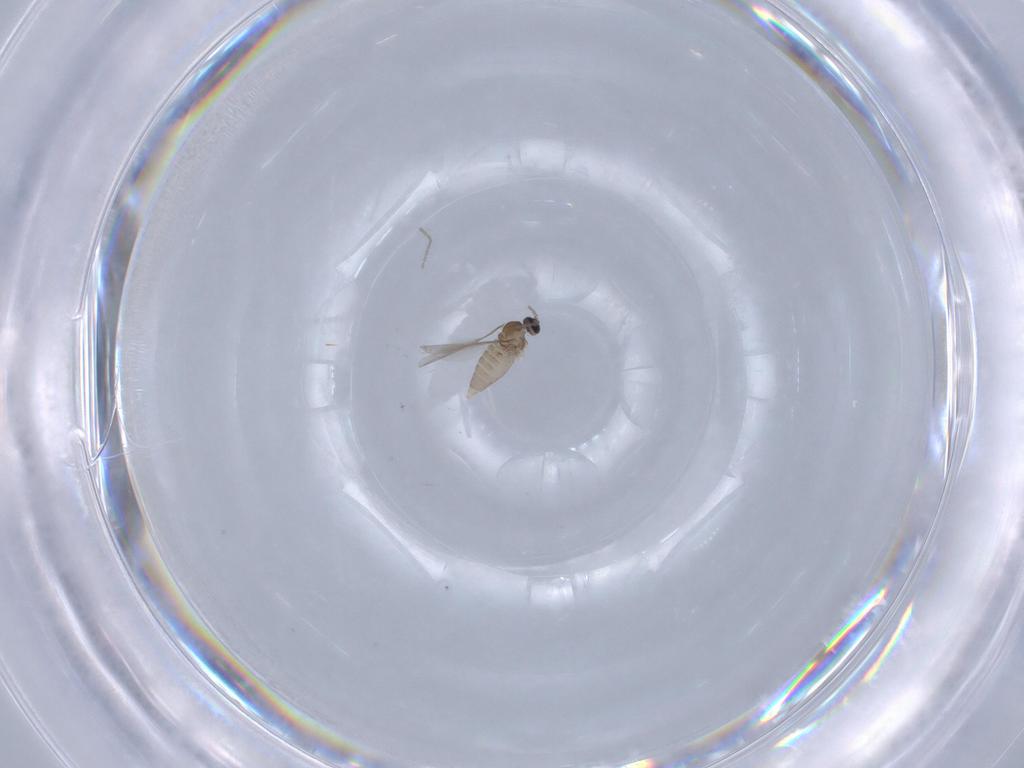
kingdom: Animalia
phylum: Arthropoda
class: Insecta
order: Diptera
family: Cecidomyiidae
